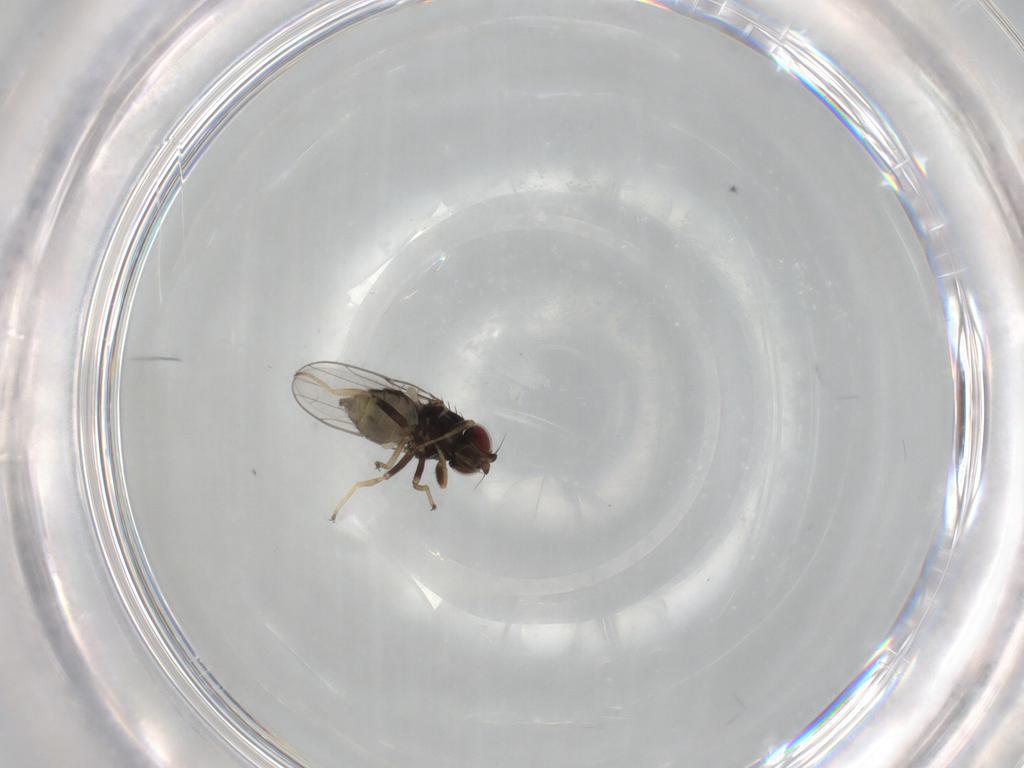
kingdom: Animalia
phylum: Arthropoda
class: Insecta
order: Diptera
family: Chloropidae
